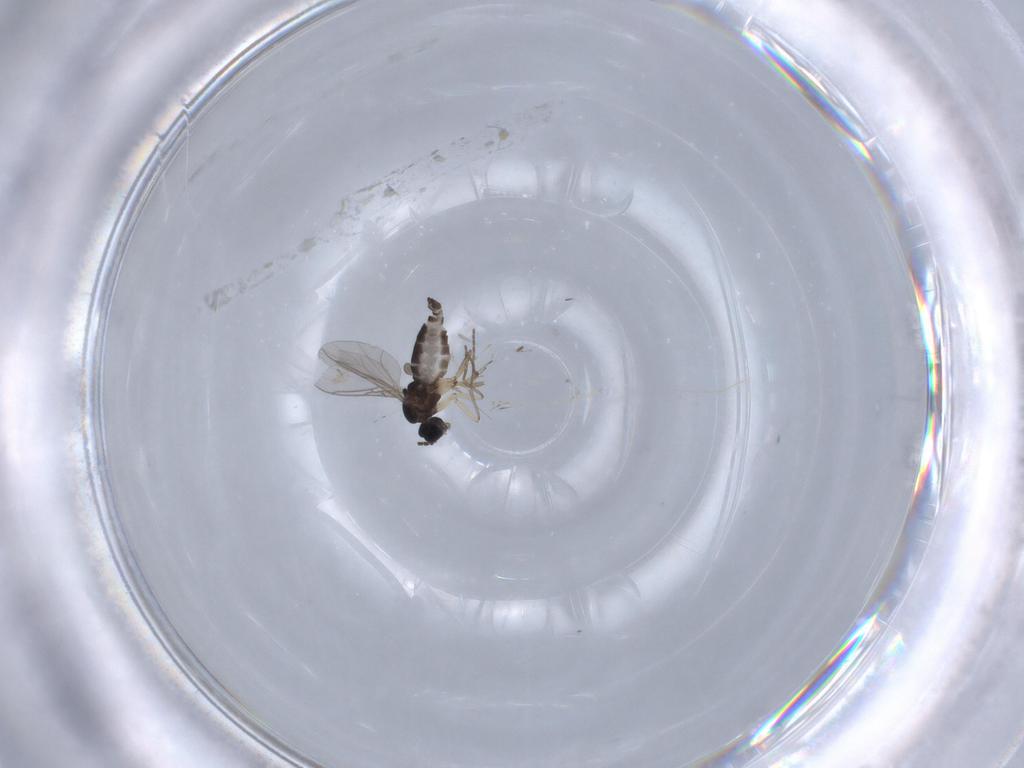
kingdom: Animalia
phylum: Arthropoda
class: Insecta
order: Diptera
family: Sciaridae
